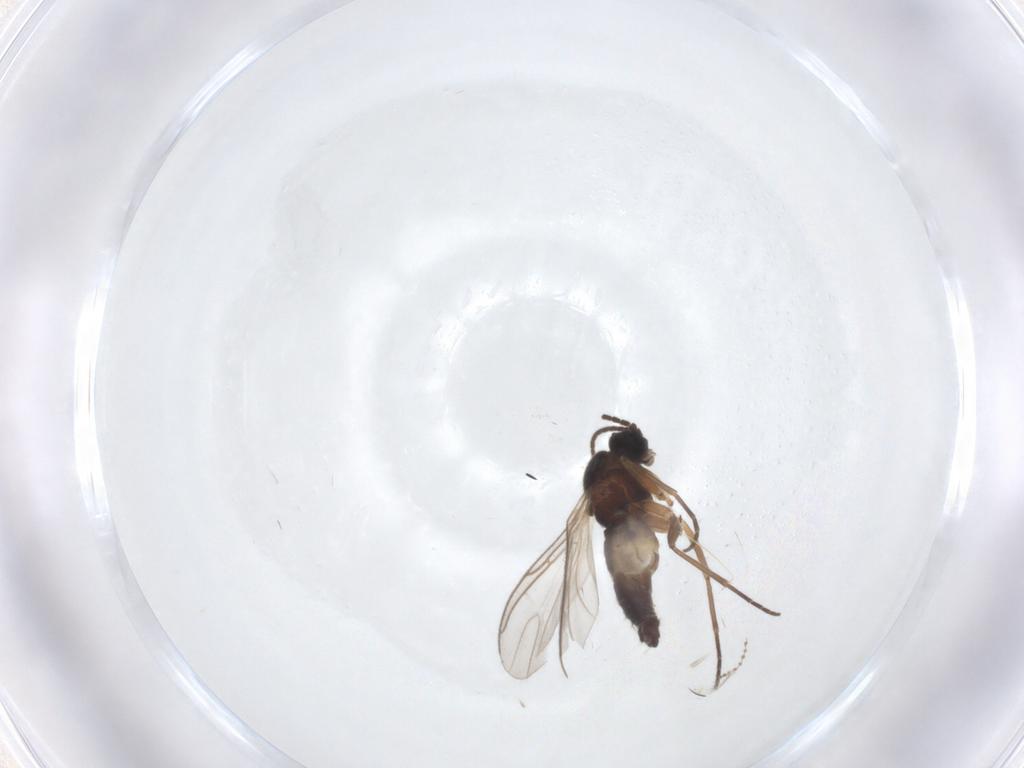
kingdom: Animalia
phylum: Arthropoda
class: Insecta
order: Diptera
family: Sciaridae
